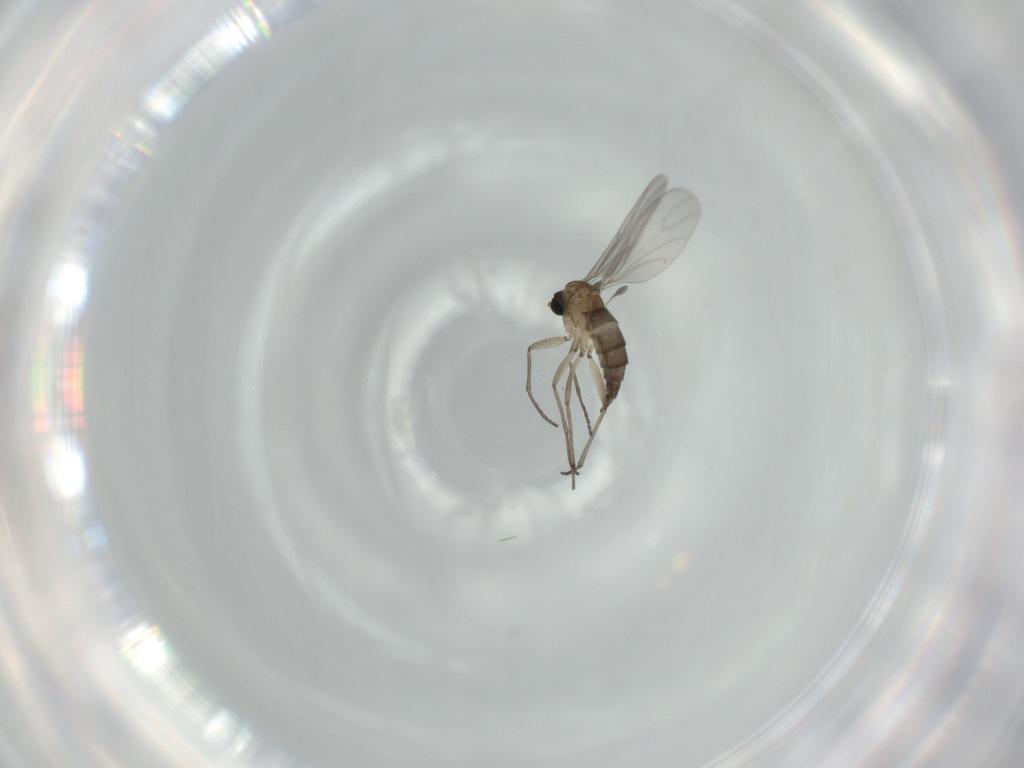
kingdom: Animalia
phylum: Arthropoda
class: Insecta
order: Diptera
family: Sciaridae
